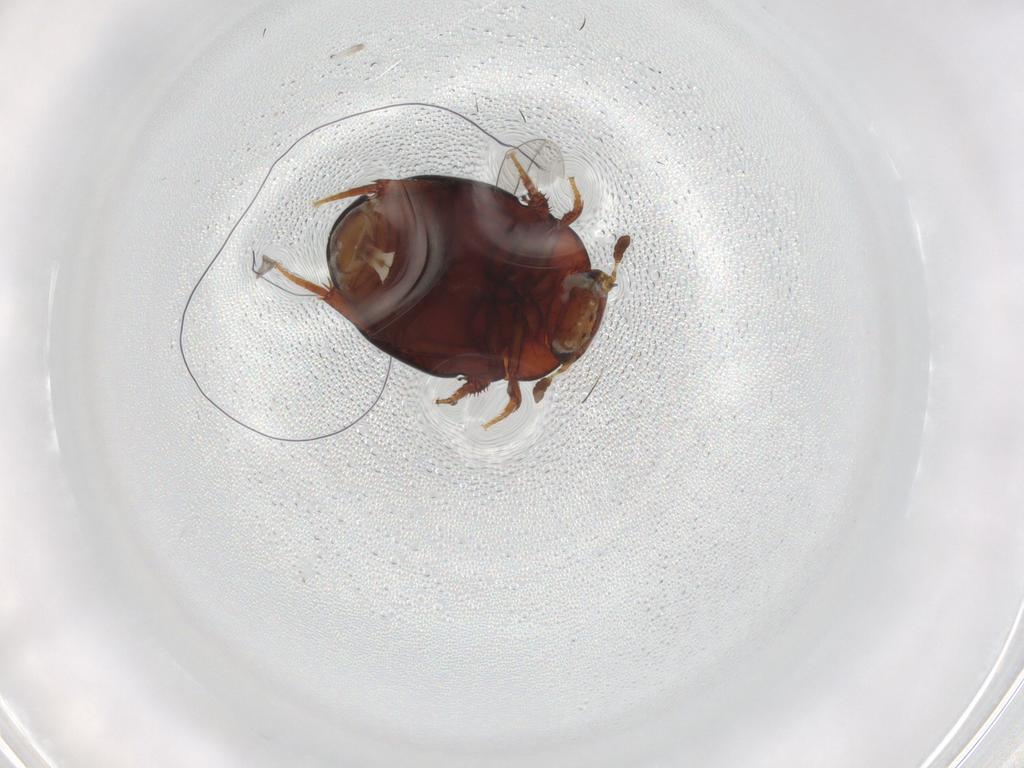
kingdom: Animalia
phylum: Arthropoda
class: Insecta
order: Coleoptera
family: Hydrophilidae
